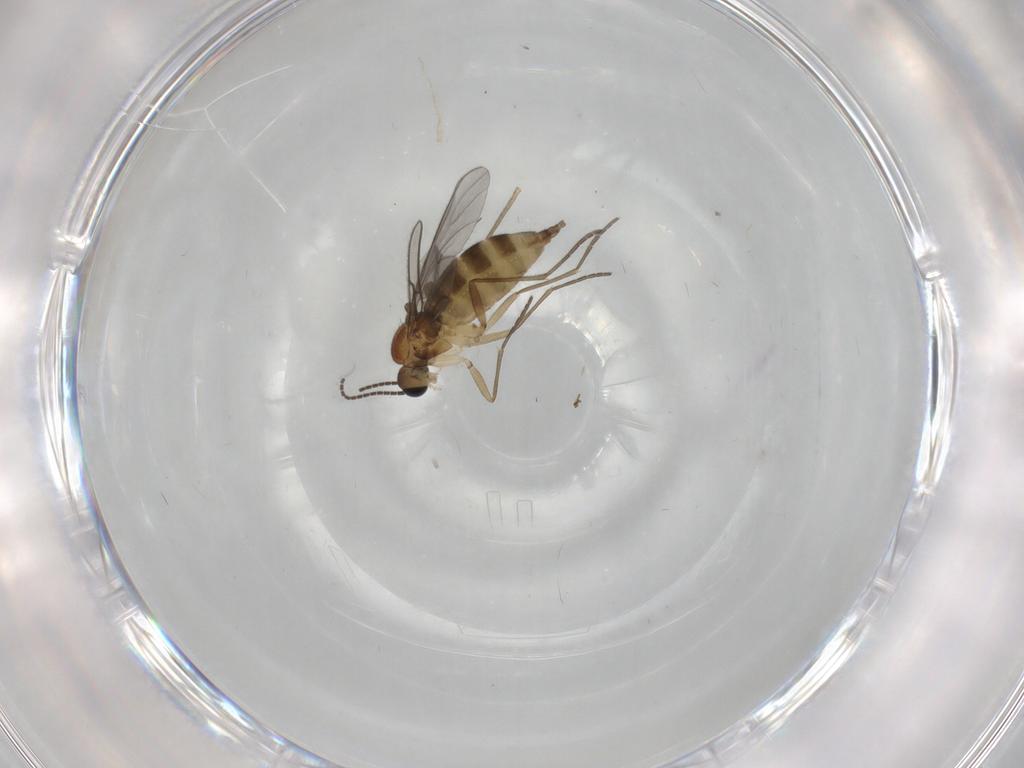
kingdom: Animalia
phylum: Arthropoda
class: Insecta
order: Diptera
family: Sciaridae
